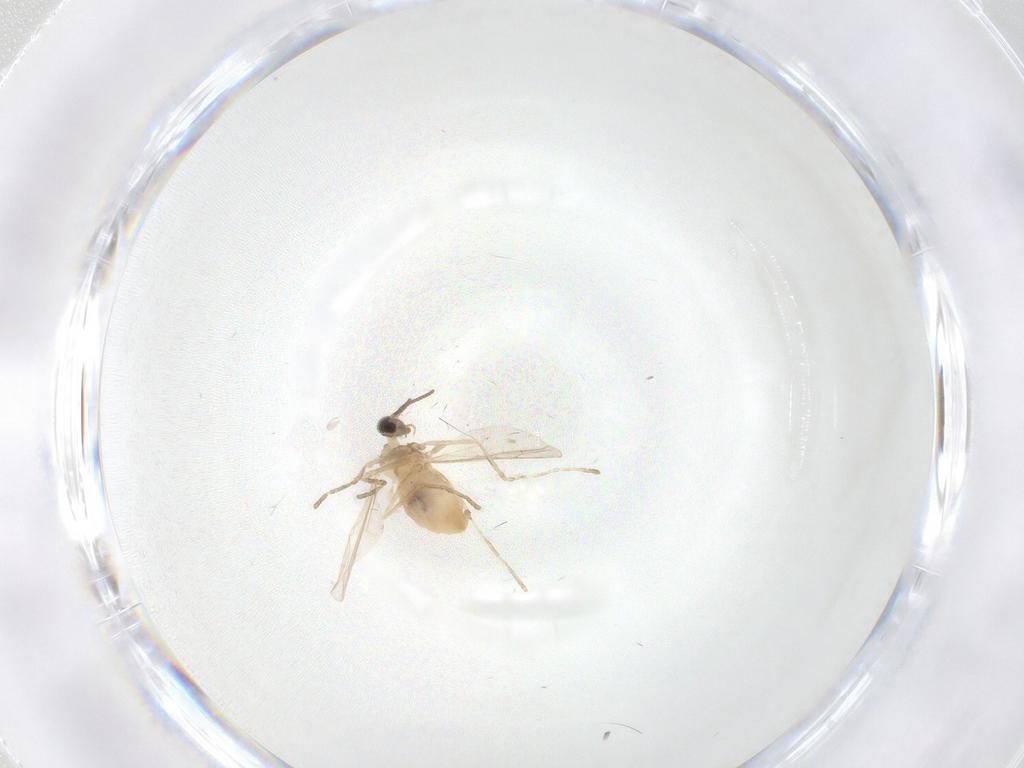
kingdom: Animalia
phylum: Arthropoda
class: Insecta
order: Diptera
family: Cecidomyiidae
